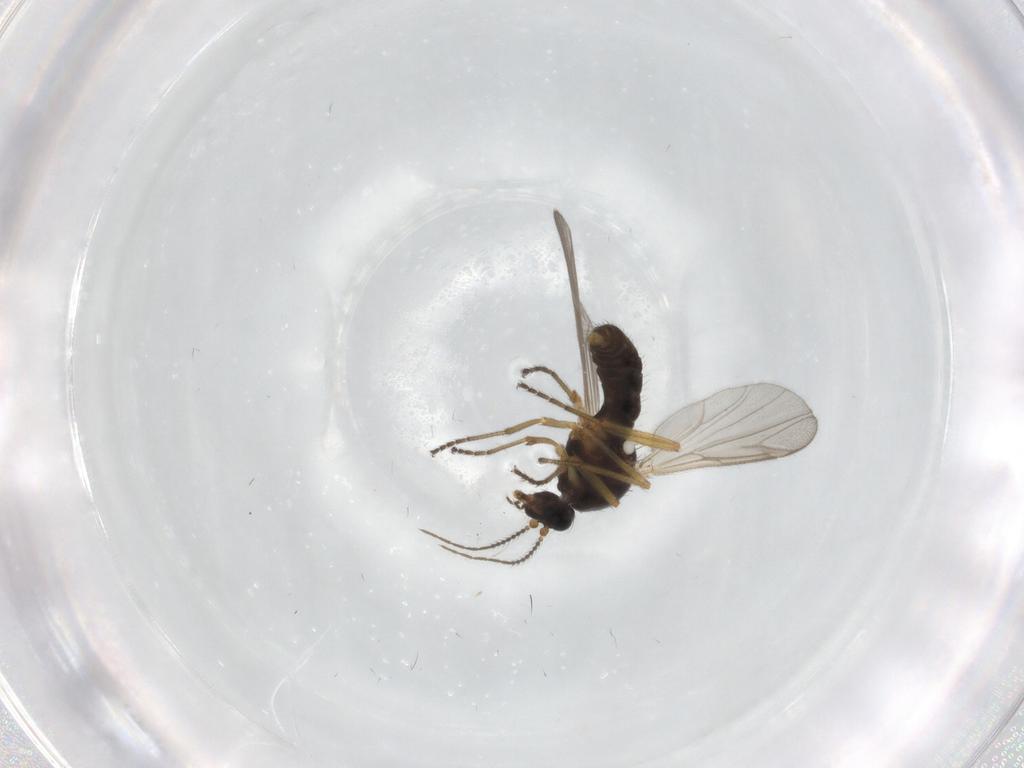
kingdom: Animalia
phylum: Arthropoda
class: Insecta
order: Diptera
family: Ceratopogonidae
